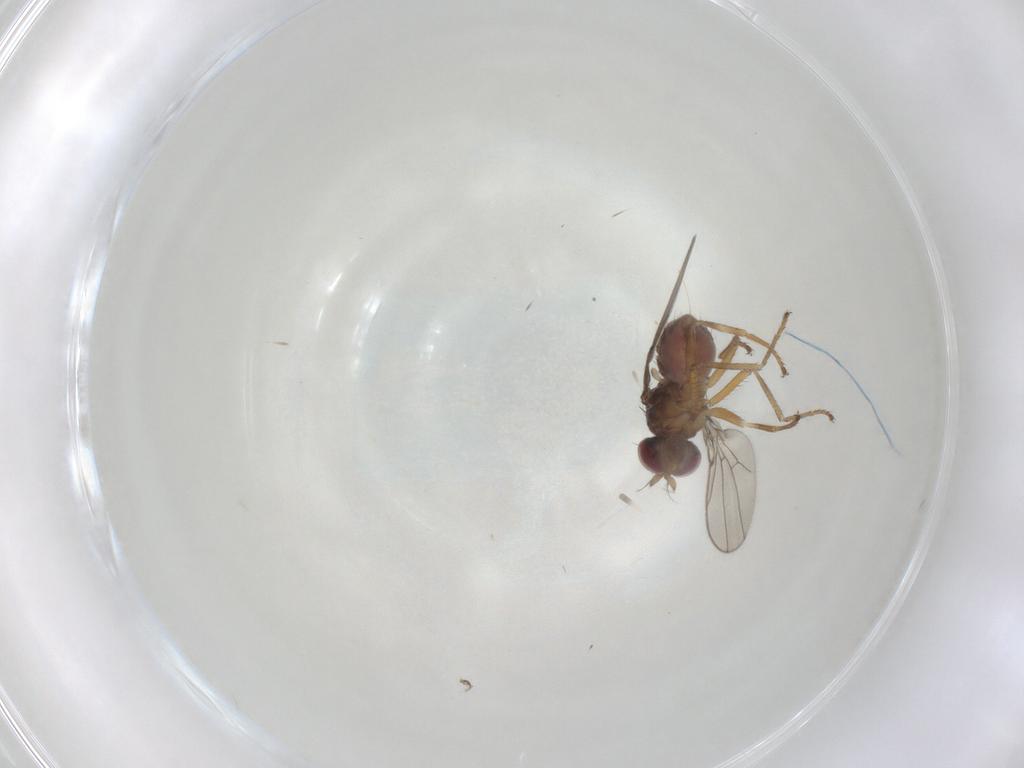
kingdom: Animalia
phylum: Arthropoda
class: Insecta
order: Diptera
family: Ephydridae
